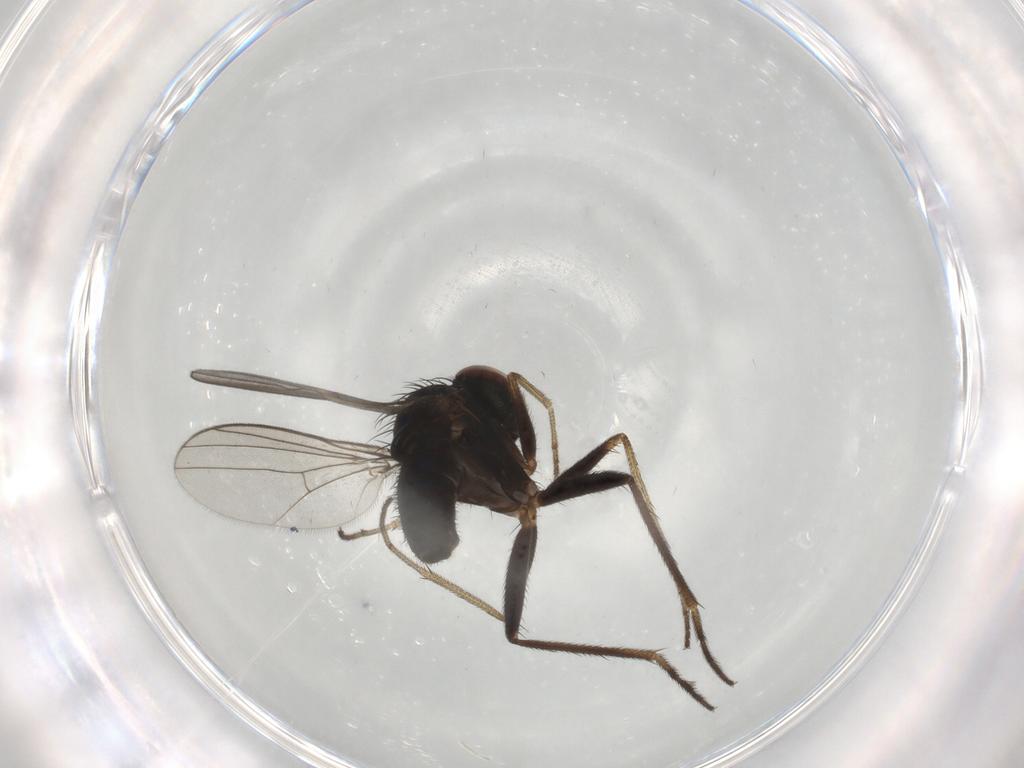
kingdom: Animalia
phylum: Arthropoda
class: Insecta
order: Diptera
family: Dolichopodidae
